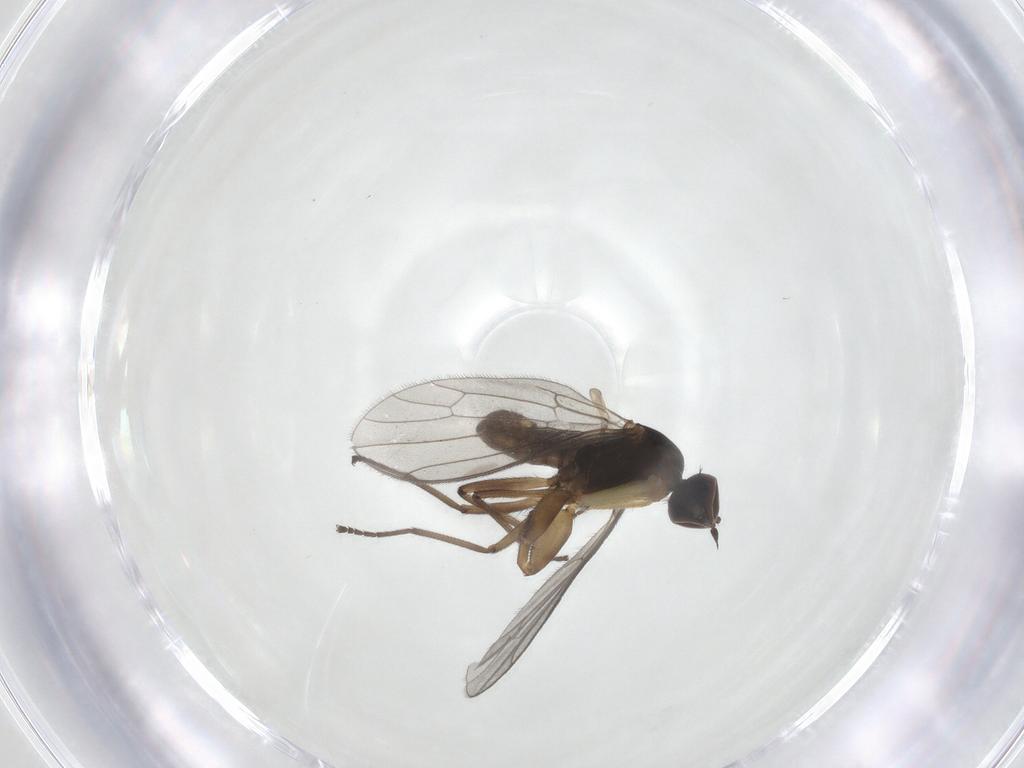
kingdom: Animalia
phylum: Arthropoda
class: Insecta
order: Diptera
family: Empididae
